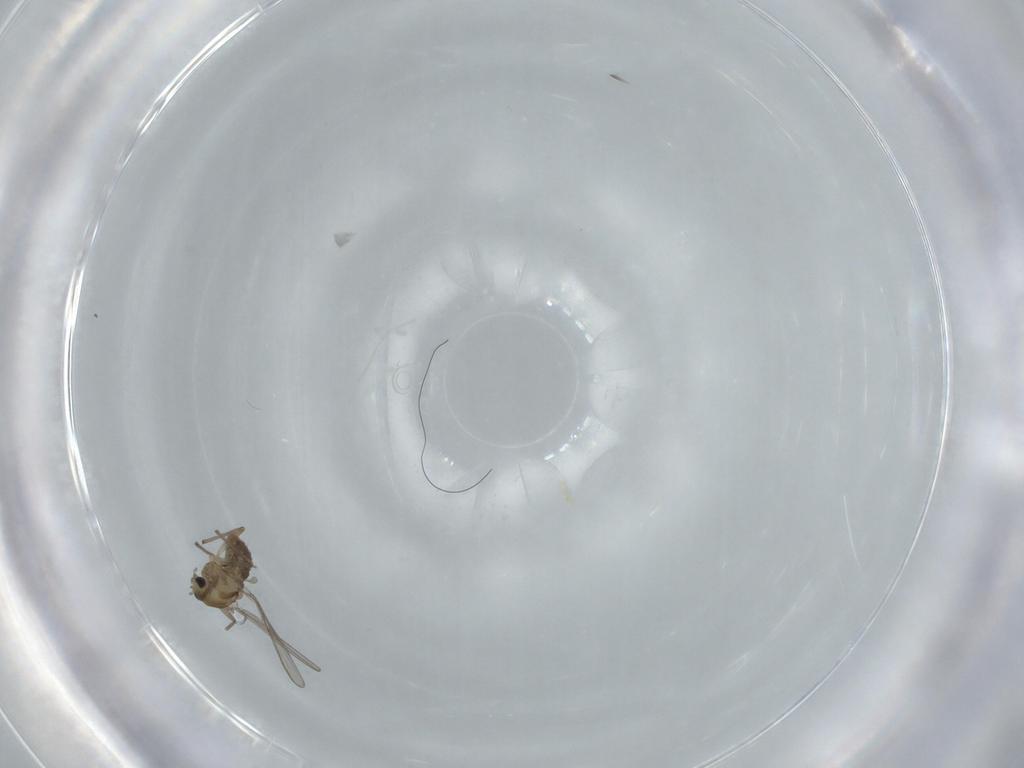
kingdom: Animalia
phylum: Arthropoda
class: Insecta
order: Diptera
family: Chironomidae
